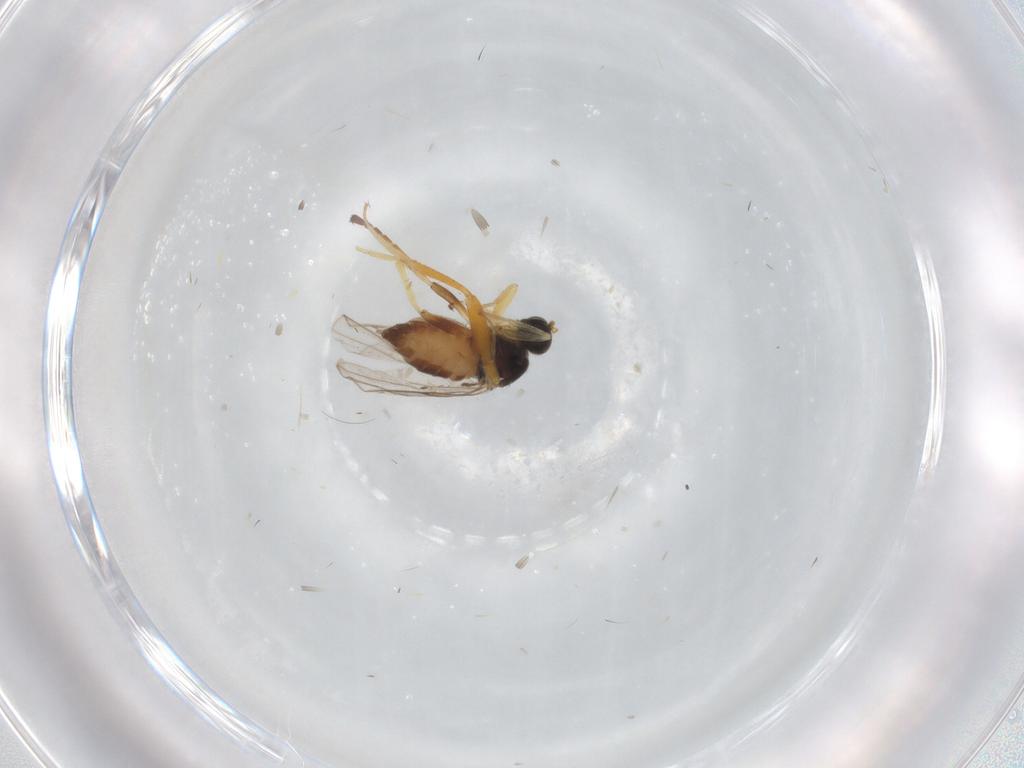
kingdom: Animalia
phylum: Arthropoda
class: Insecta
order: Diptera
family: Hybotidae
